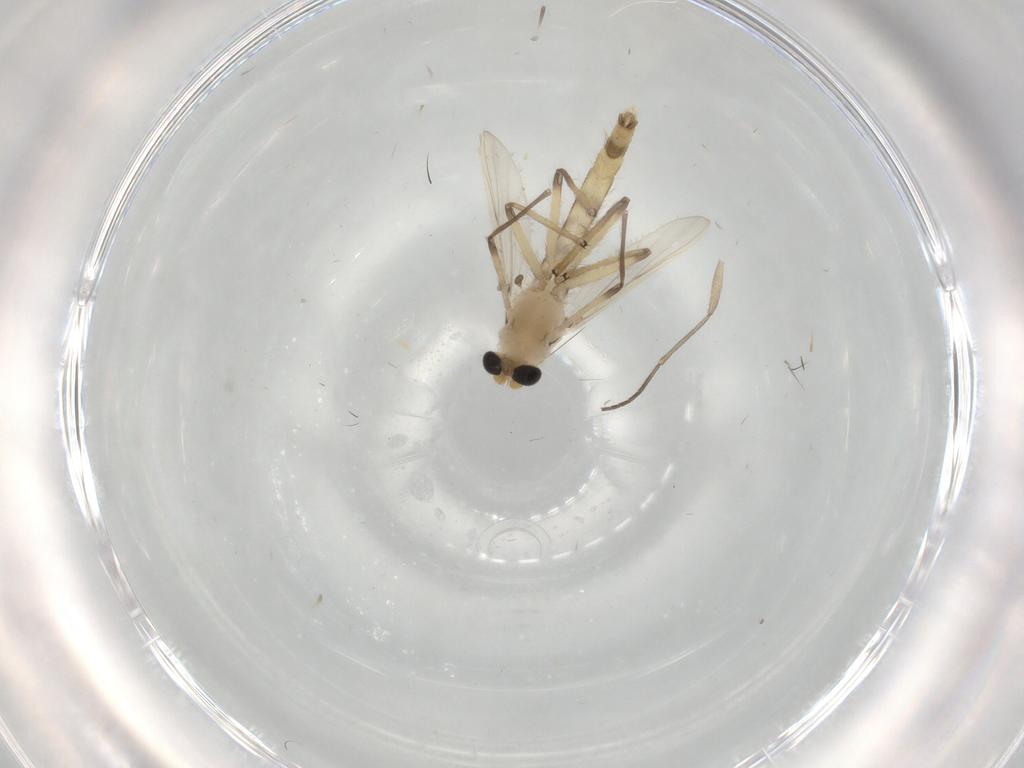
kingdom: Animalia
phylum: Arthropoda
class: Insecta
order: Diptera
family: Chironomidae
